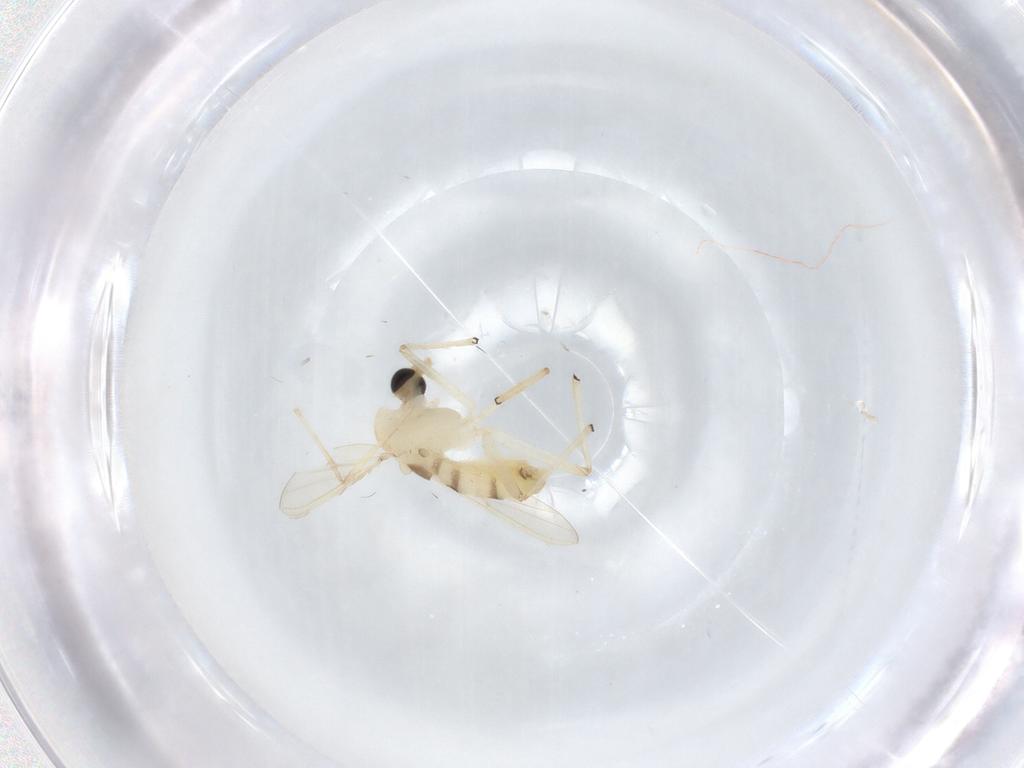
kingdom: Animalia
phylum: Arthropoda
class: Insecta
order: Diptera
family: Chironomidae
